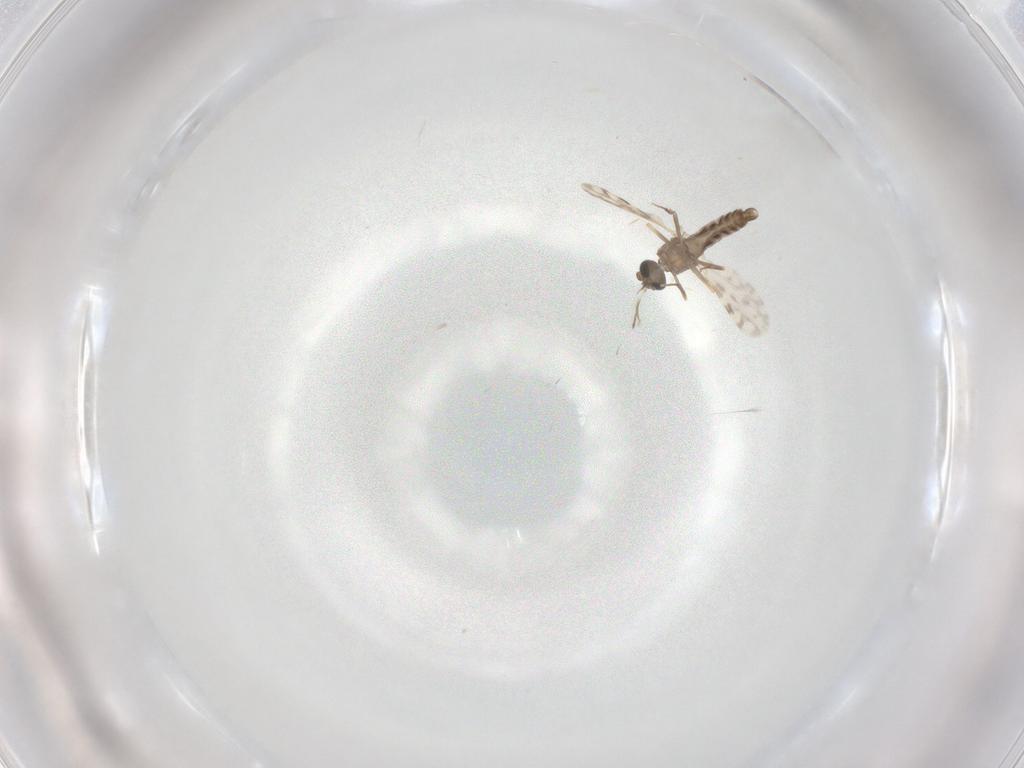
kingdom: Animalia
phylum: Arthropoda
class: Insecta
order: Diptera
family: Ceratopogonidae
